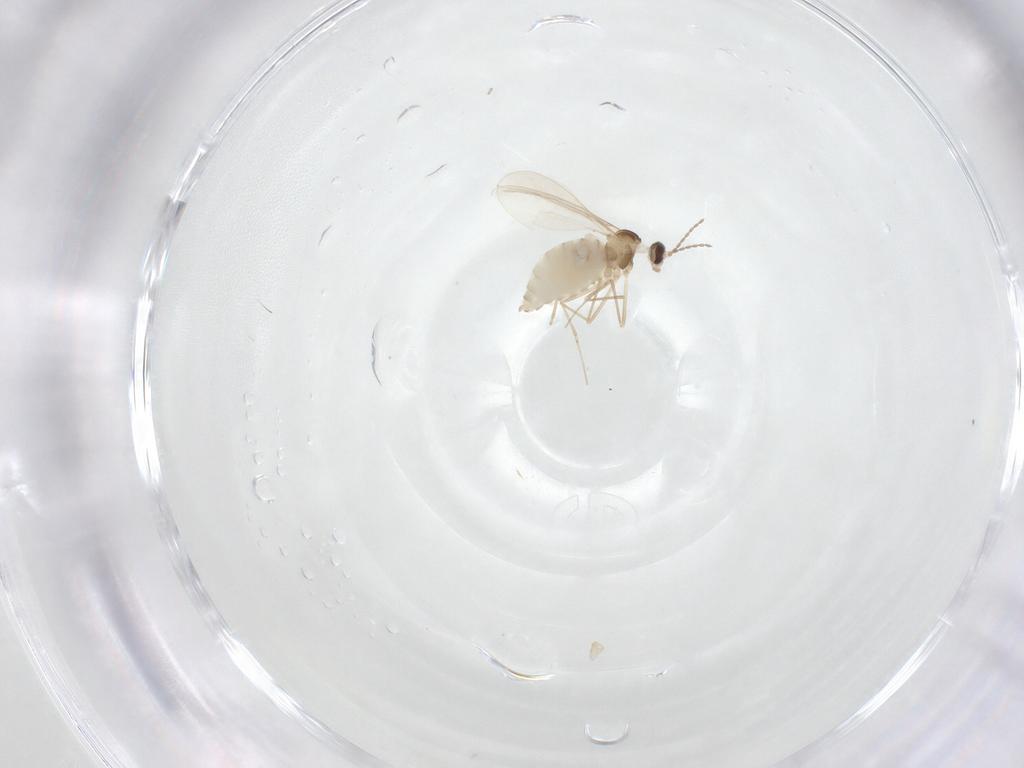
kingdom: Animalia
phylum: Arthropoda
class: Insecta
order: Diptera
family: Cecidomyiidae
